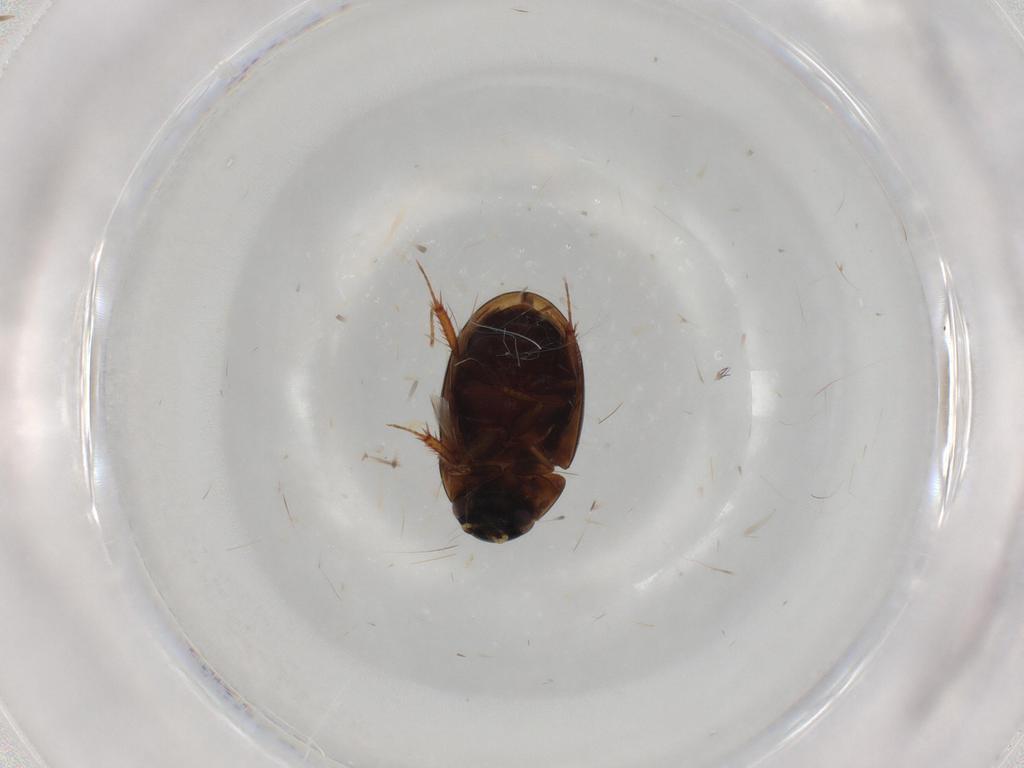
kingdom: Animalia
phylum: Arthropoda
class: Insecta
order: Coleoptera
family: Hydrophilidae
